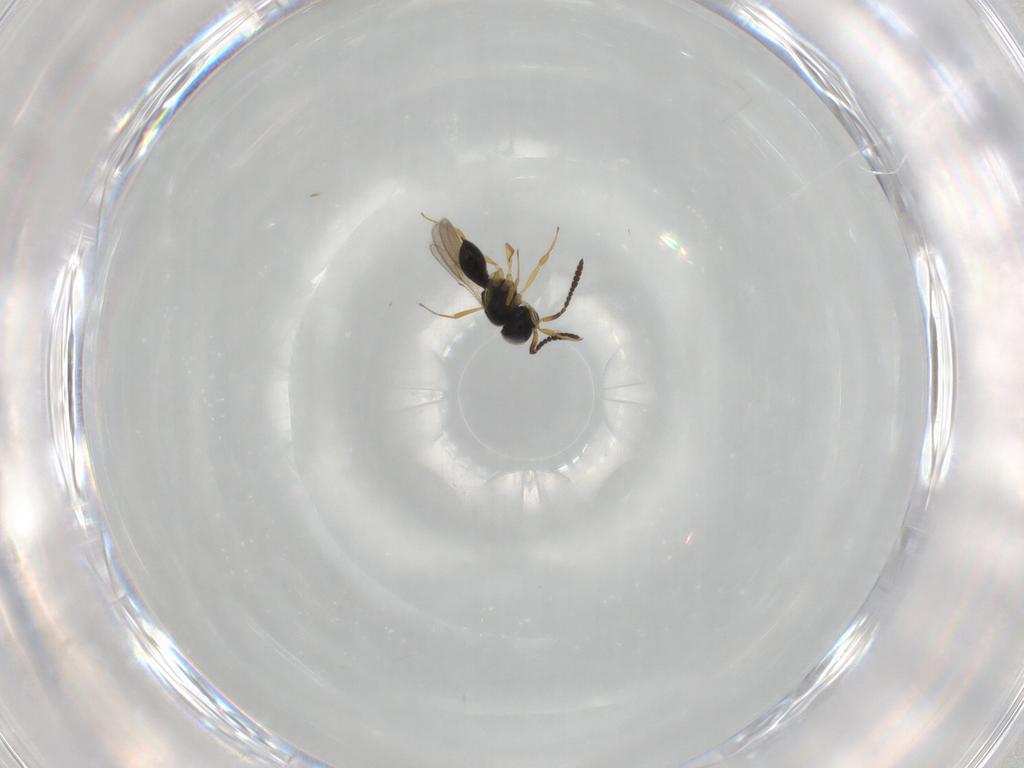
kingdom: Animalia
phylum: Arthropoda
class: Insecta
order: Hymenoptera
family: Scelionidae
